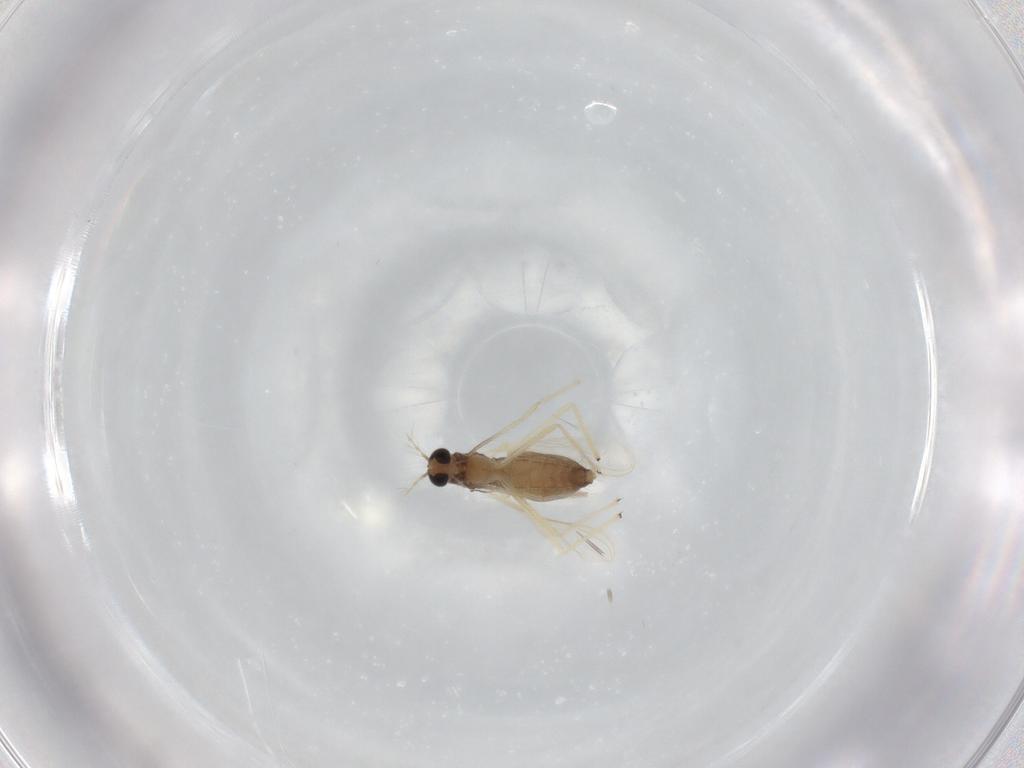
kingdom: Animalia
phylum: Arthropoda
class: Insecta
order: Diptera
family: Chironomidae
